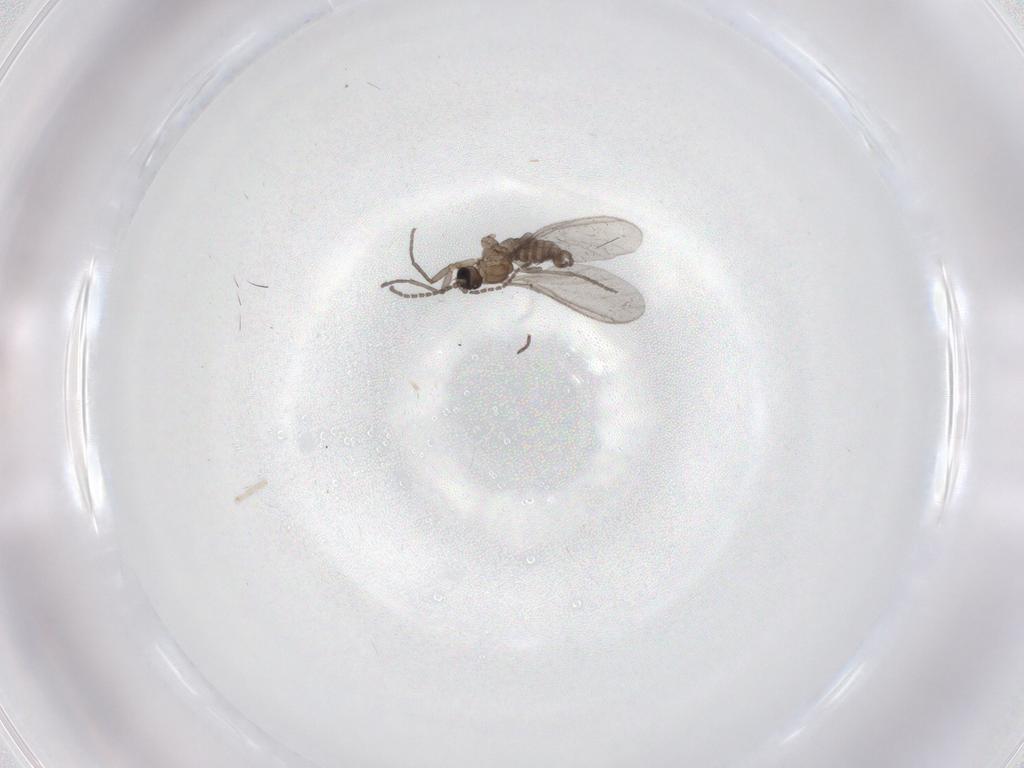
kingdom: Animalia
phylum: Arthropoda
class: Insecta
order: Diptera
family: Sciaridae
